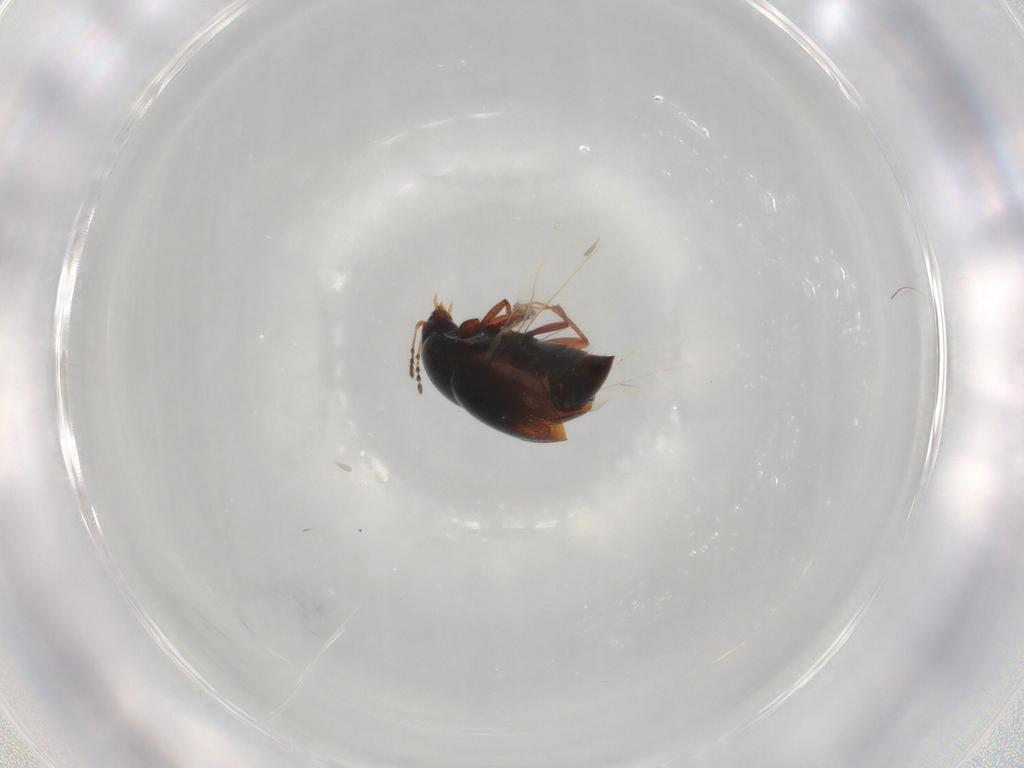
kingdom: Animalia
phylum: Arthropoda
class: Insecta
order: Coleoptera
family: Staphylinidae
